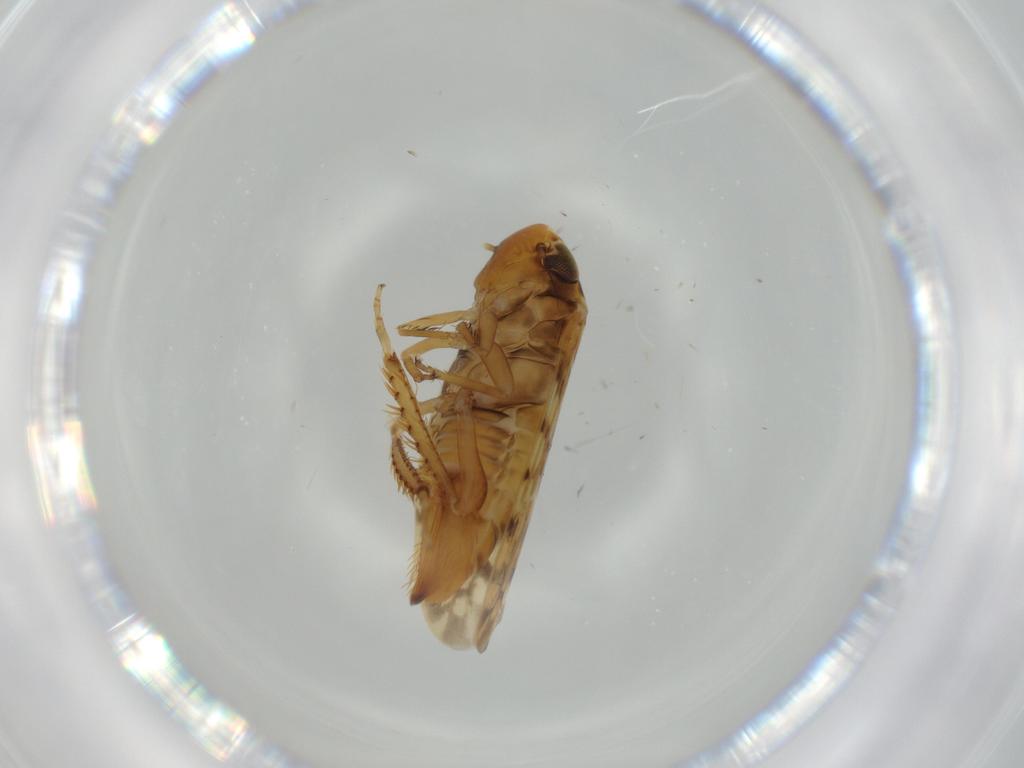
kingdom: Animalia
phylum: Arthropoda
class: Insecta
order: Hemiptera
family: Cicadellidae
